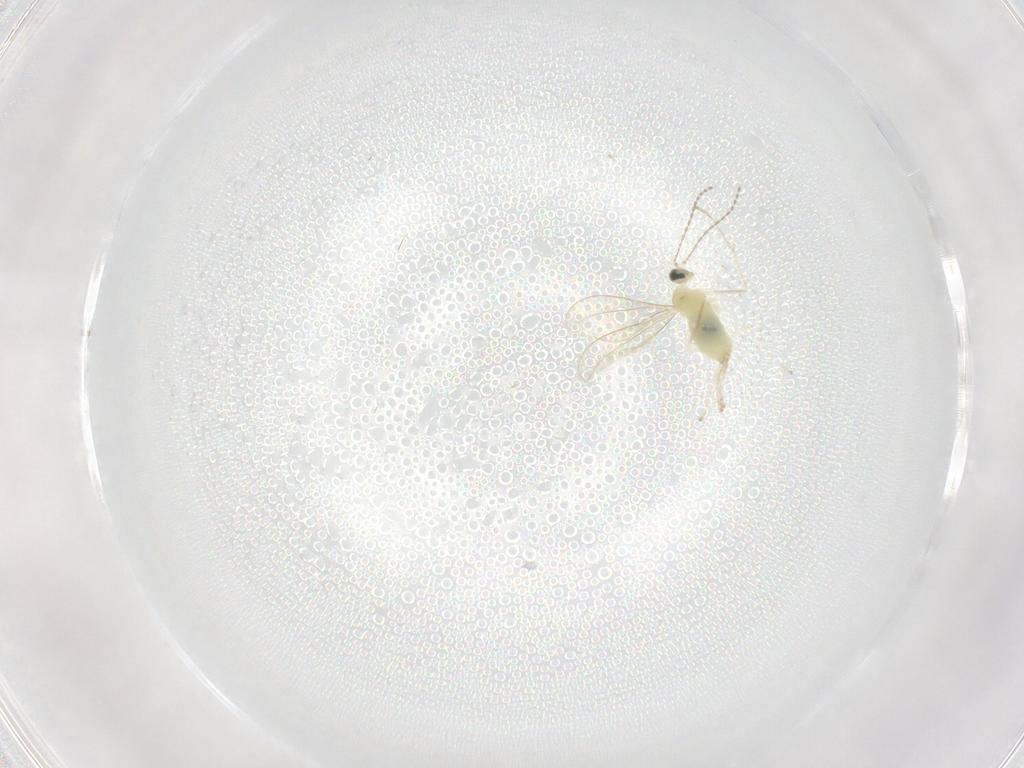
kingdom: Animalia
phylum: Arthropoda
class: Insecta
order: Diptera
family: Cecidomyiidae
